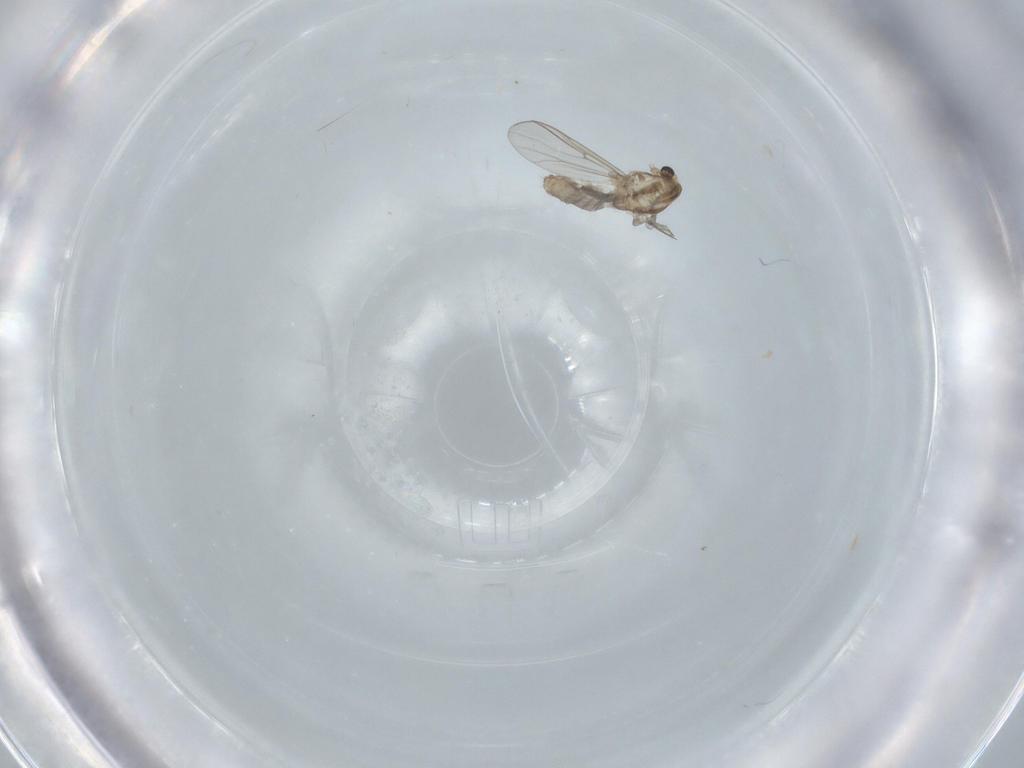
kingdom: Animalia
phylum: Arthropoda
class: Insecta
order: Diptera
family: Chironomidae
